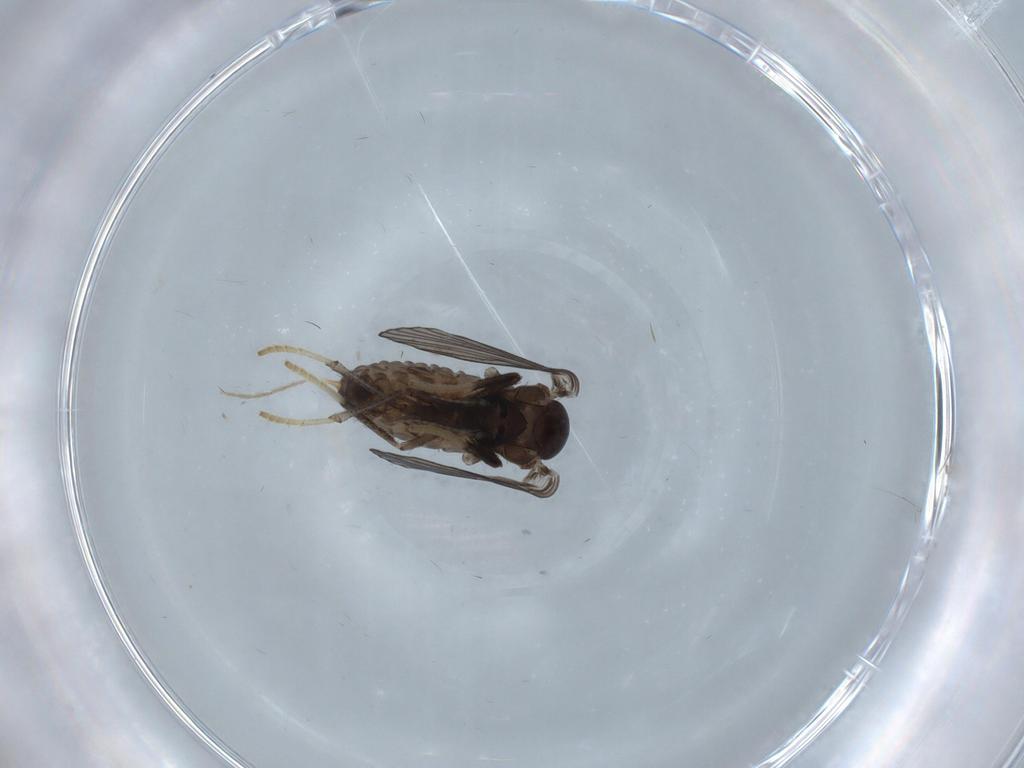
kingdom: Animalia
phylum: Arthropoda
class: Insecta
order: Diptera
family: Psychodidae
